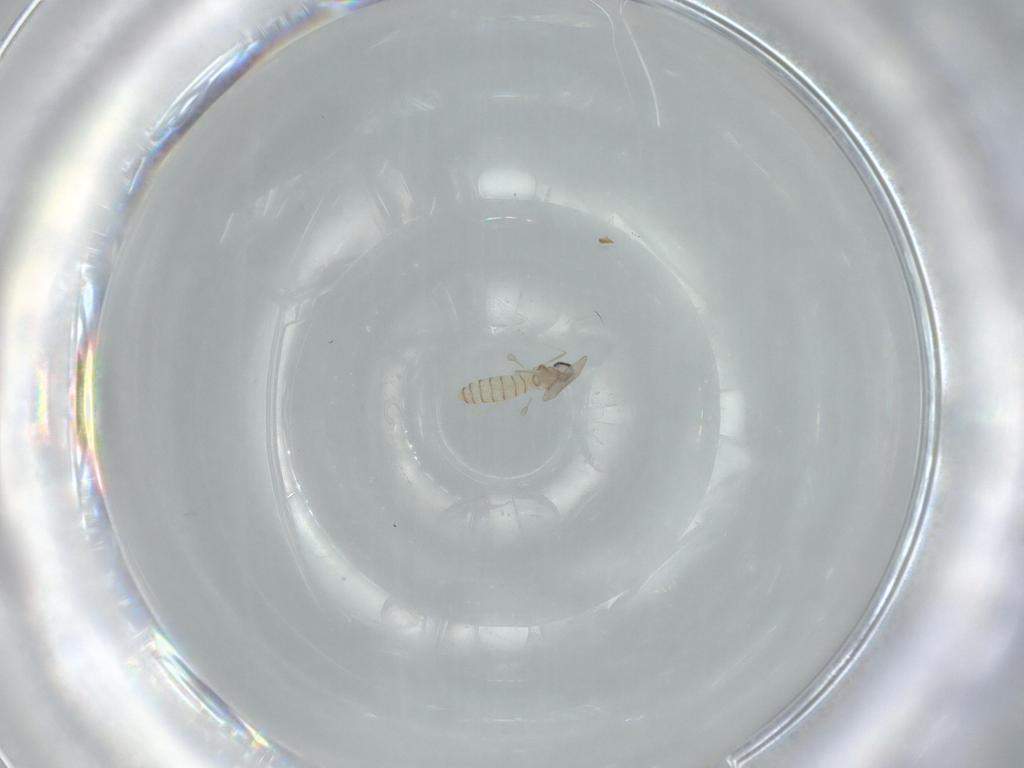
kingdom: Animalia
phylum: Arthropoda
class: Insecta
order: Diptera
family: Cecidomyiidae
